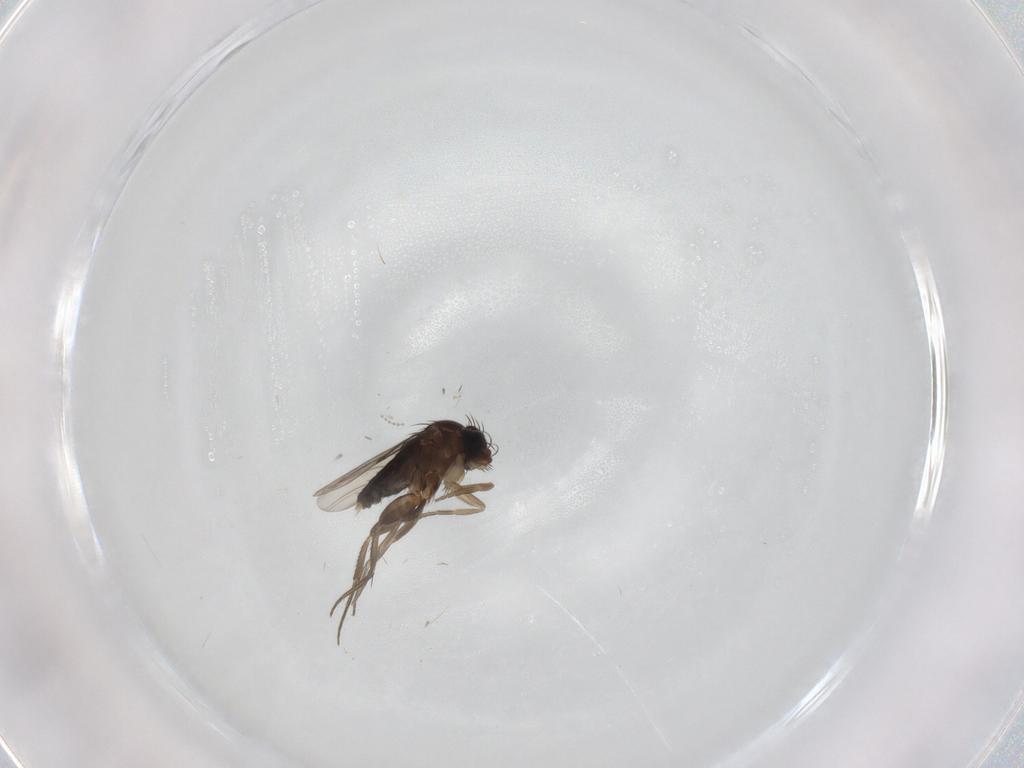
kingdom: Animalia
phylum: Arthropoda
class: Insecta
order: Diptera
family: Phoridae
